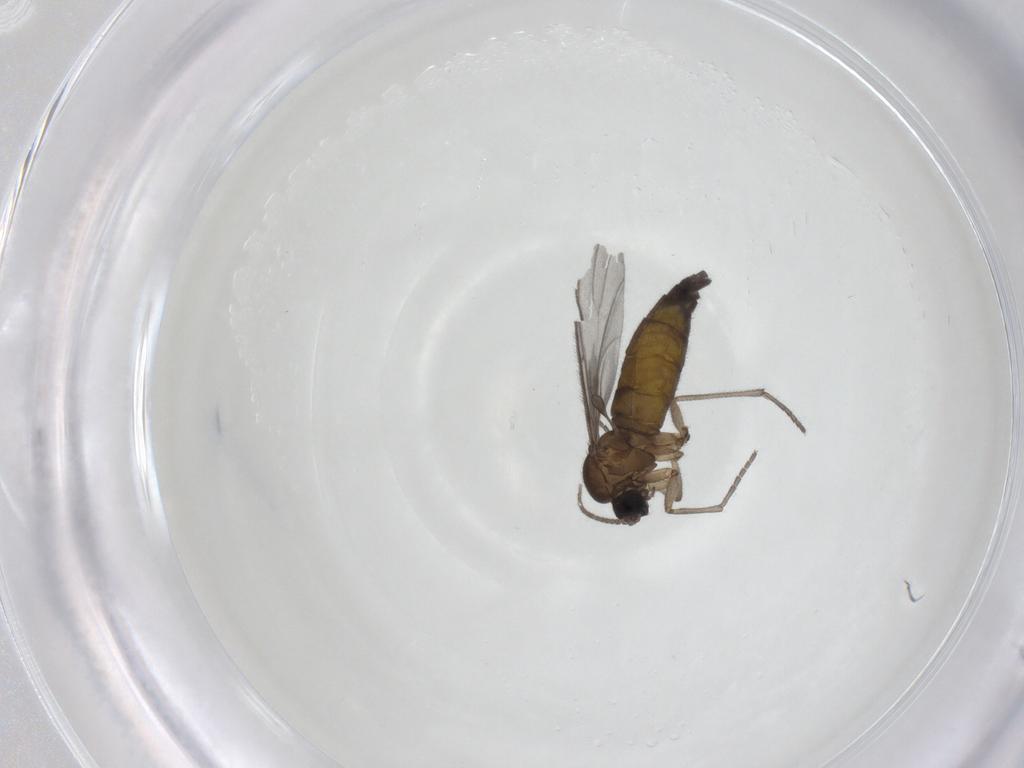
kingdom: Animalia
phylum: Arthropoda
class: Insecta
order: Diptera
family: Sciaridae
